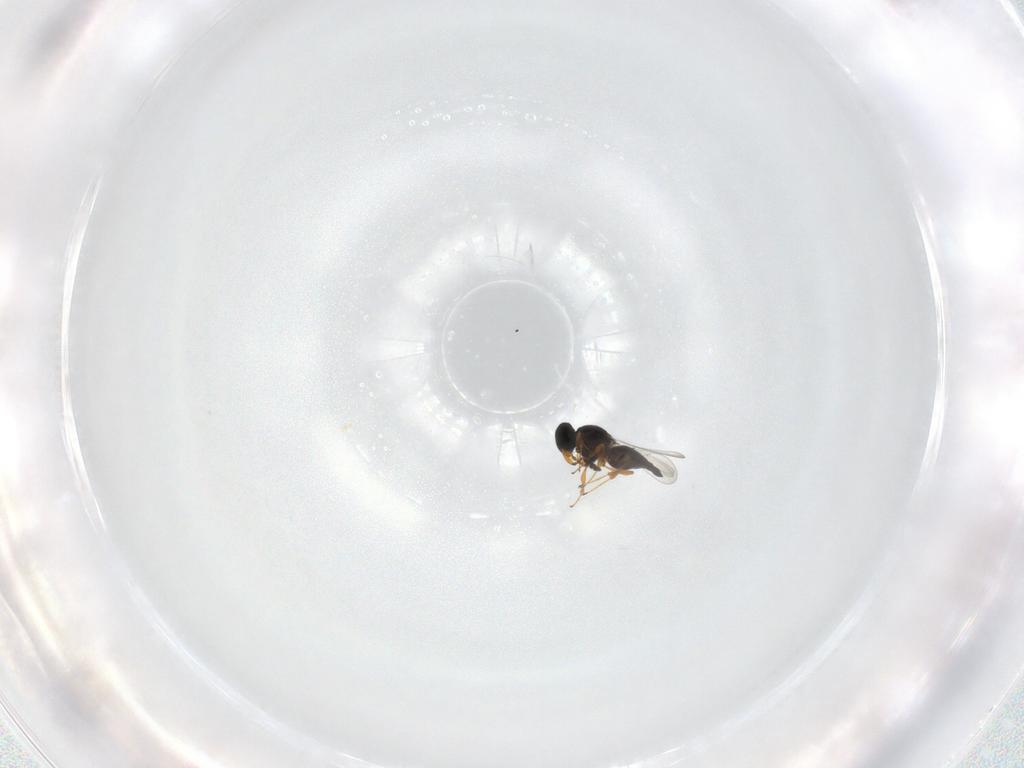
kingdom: Animalia
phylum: Arthropoda
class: Insecta
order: Hymenoptera
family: Platygastridae
